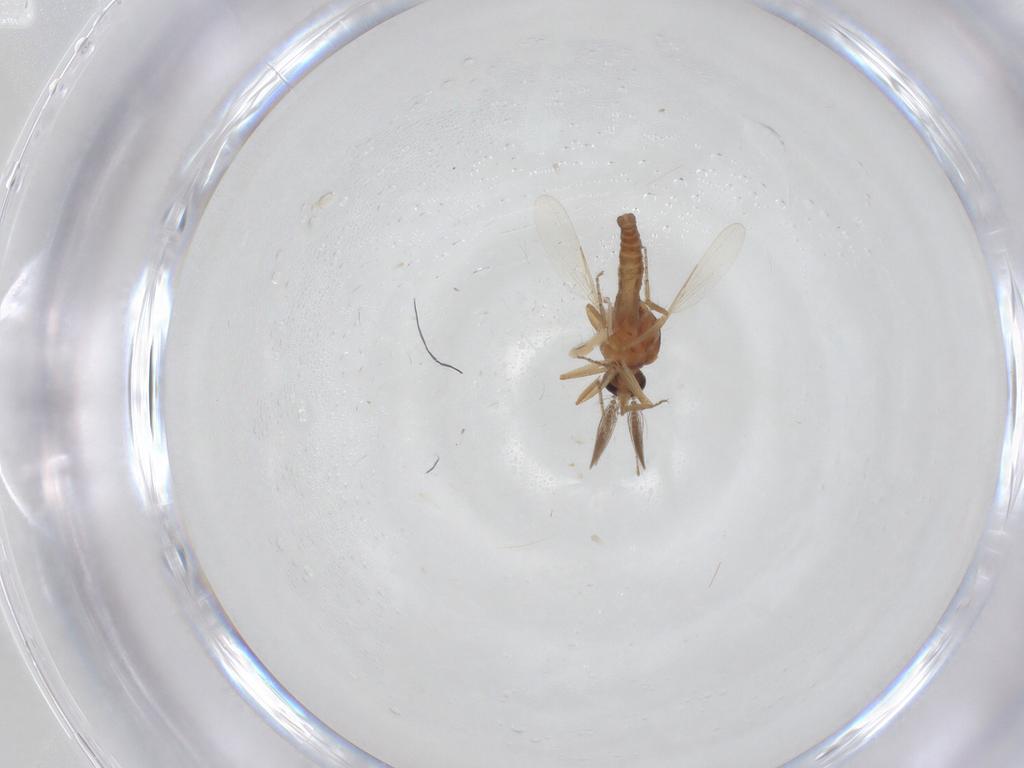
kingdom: Animalia
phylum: Arthropoda
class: Insecta
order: Diptera
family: Ceratopogonidae
